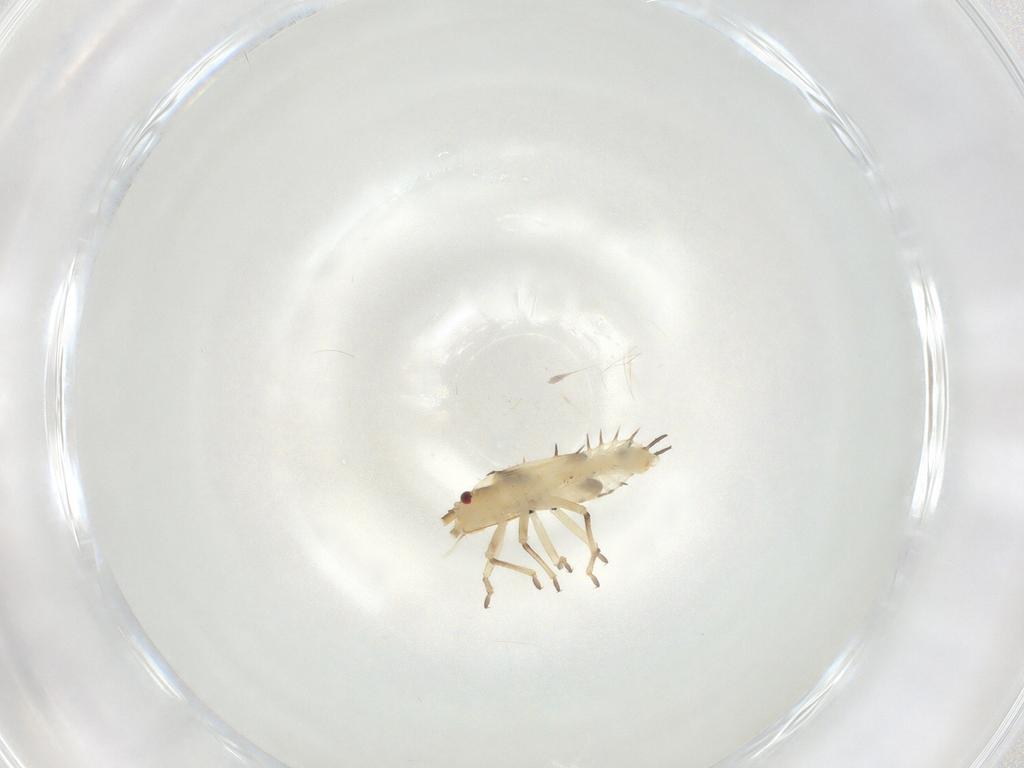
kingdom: Animalia
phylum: Arthropoda
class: Insecta
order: Hemiptera
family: Tingidae
